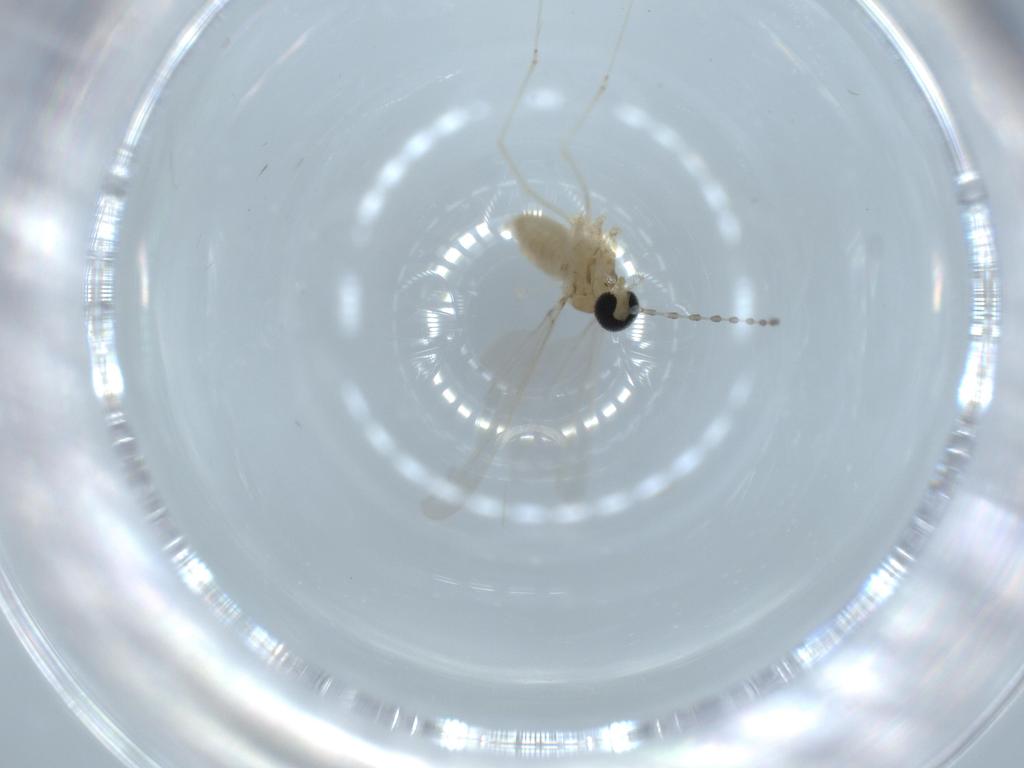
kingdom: Animalia
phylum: Arthropoda
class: Insecta
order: Diptera
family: Cecidomyiidae
